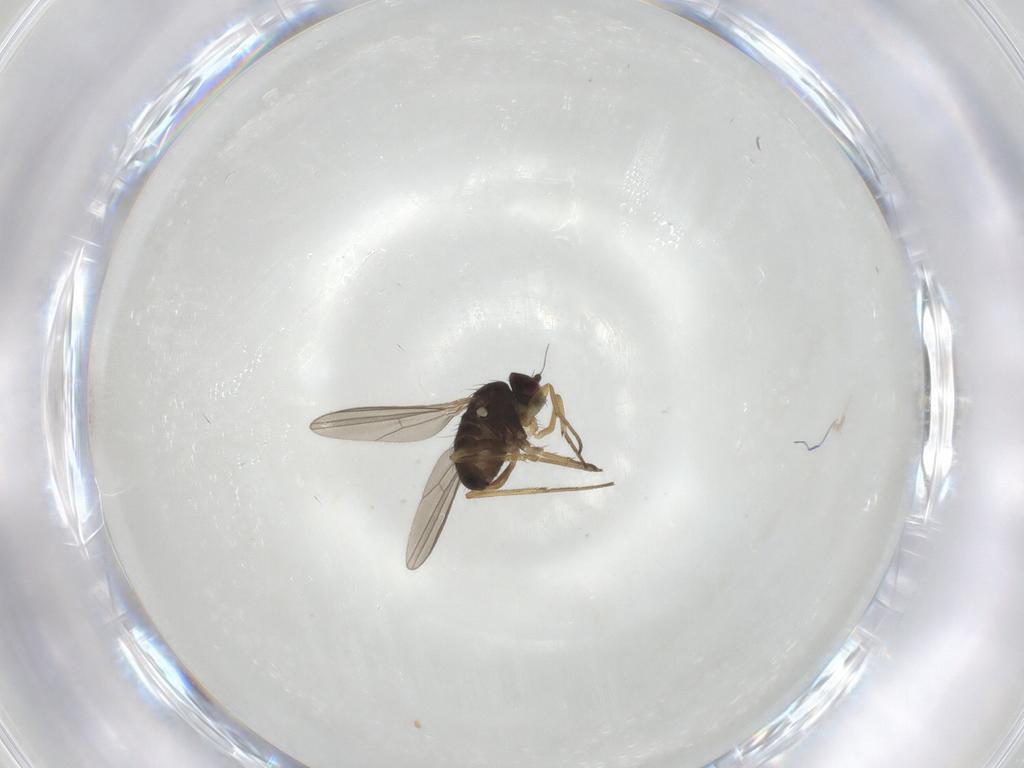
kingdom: Animalia
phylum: Arthropoda
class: Insecta
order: Diptera
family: Dolichopodidae
